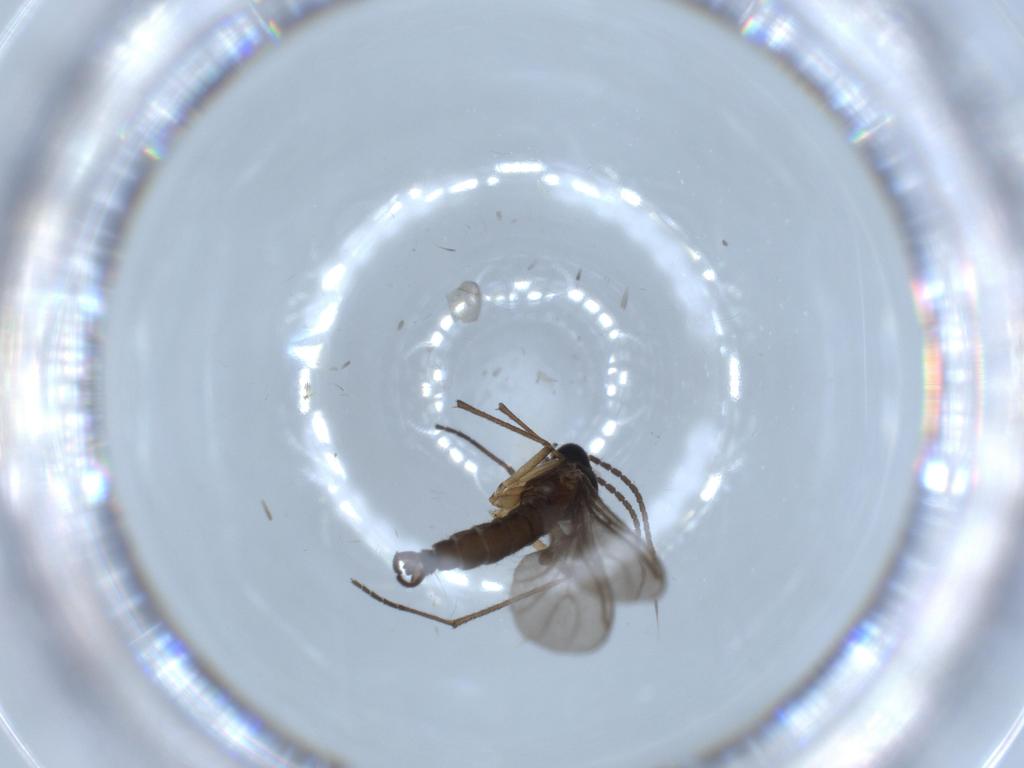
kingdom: Animalia
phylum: Arthropoda
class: Insecta
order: Diptera
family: Sciaridae
